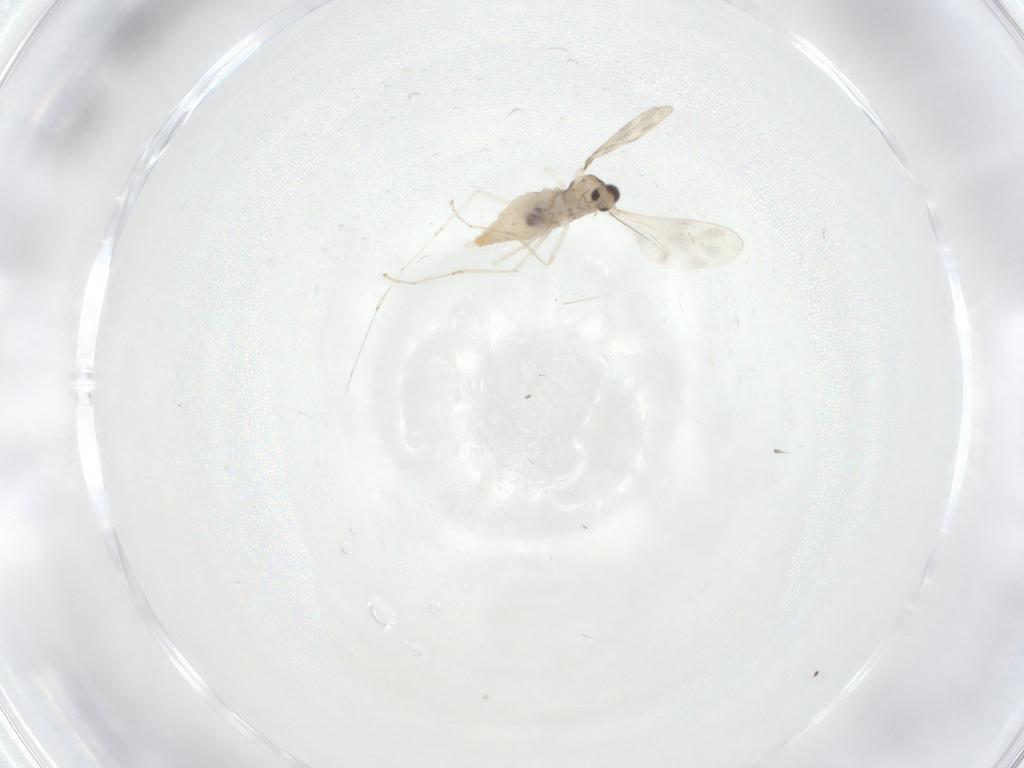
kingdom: Animalia
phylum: Arthropoda
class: Insecta
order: Diptera
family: Cecidomyiidae
